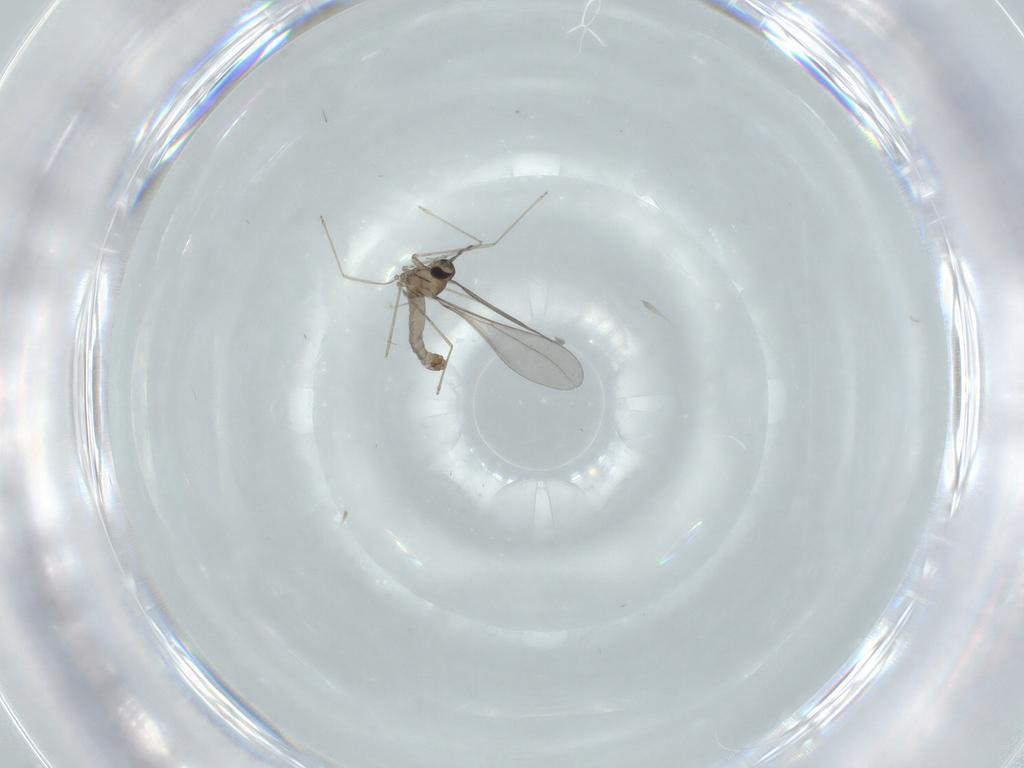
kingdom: Animalia
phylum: Arthropoda
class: Insecta
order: Diptera
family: Cecidomyiidae
